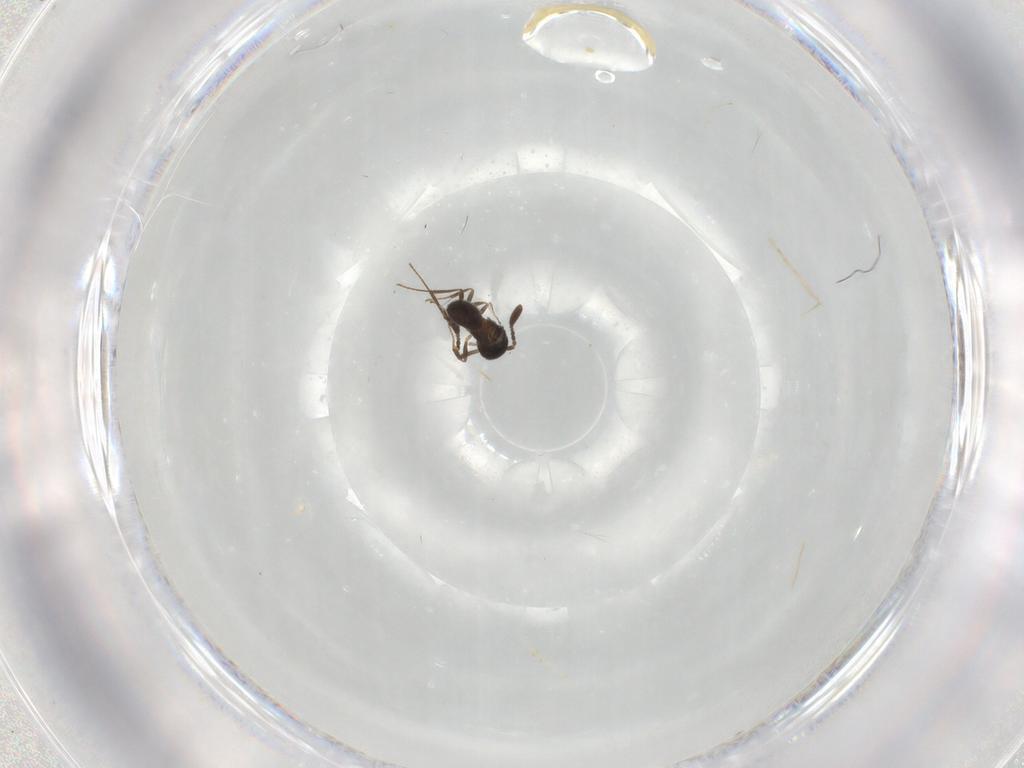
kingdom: Animalia
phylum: Arthropoda
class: Insecta
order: Hymenoptera
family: Scelionidae
